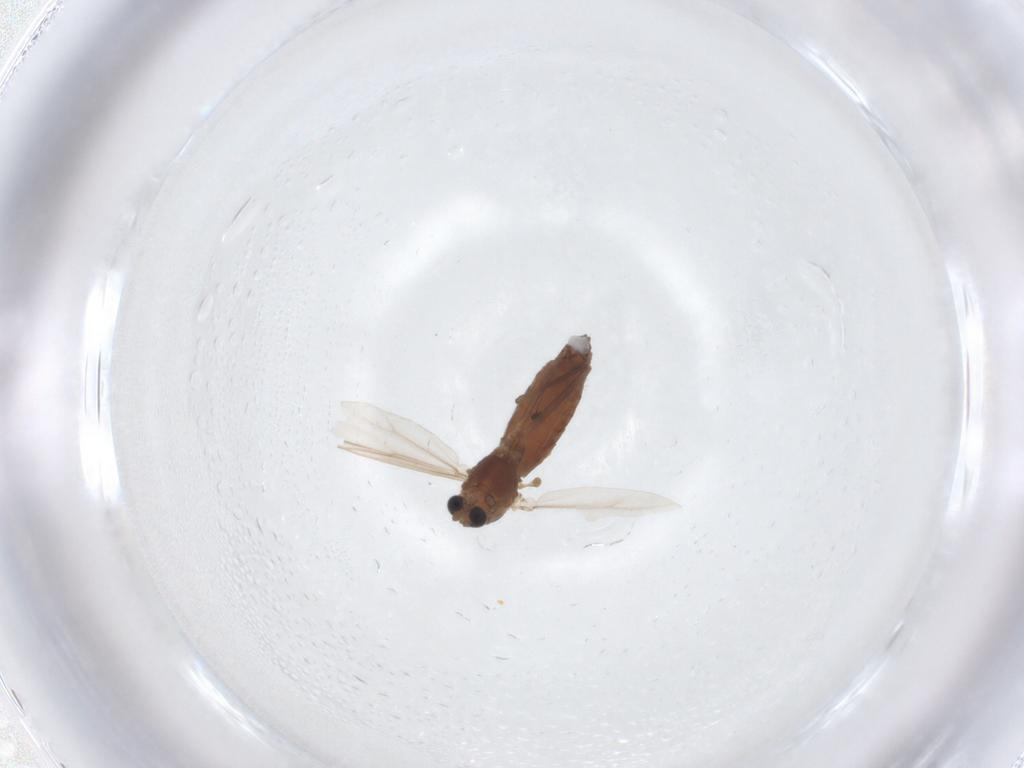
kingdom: Animalia
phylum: Arthropoda
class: Insecta
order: Diptera
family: Chironomidae
